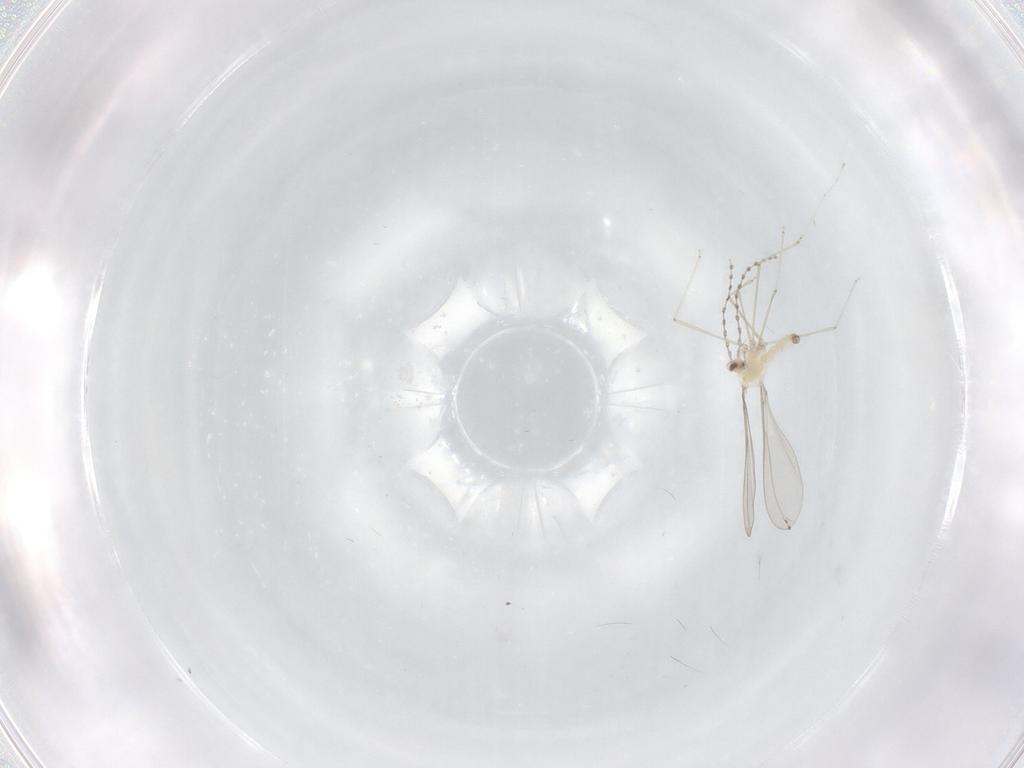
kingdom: Animalia
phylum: Arthropoda
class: Insecta
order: Diptera
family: Cecidomyiidae
